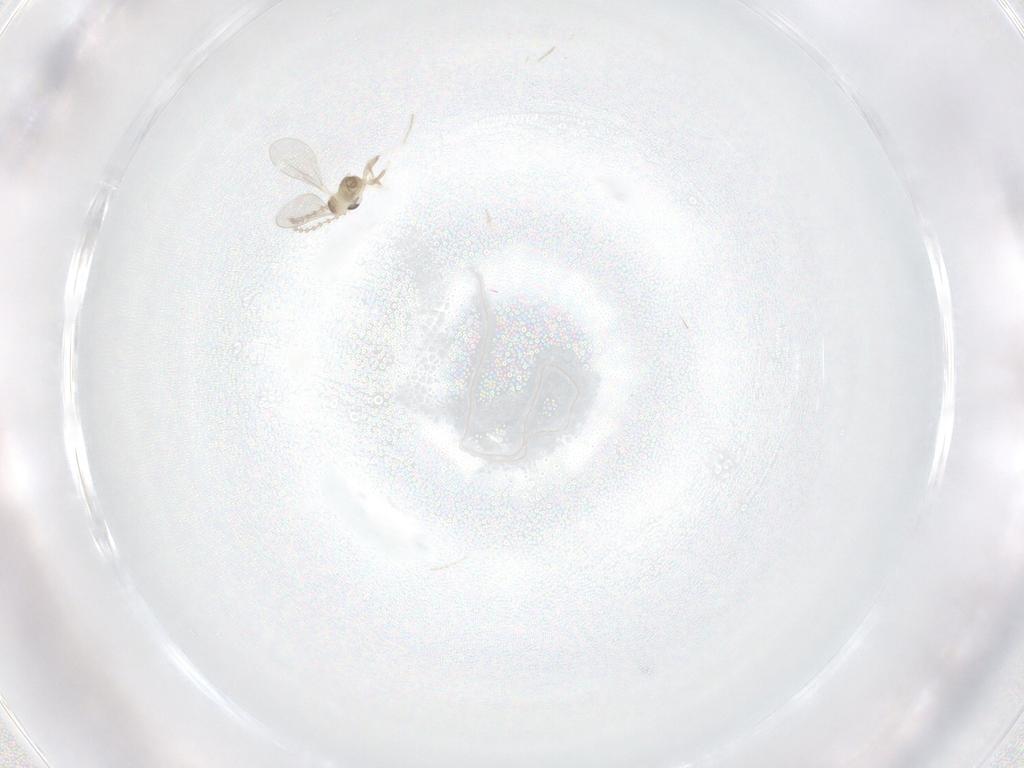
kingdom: Animalia
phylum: Arthropoda
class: Insecta
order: Diptera
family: Cecidomyiidae
